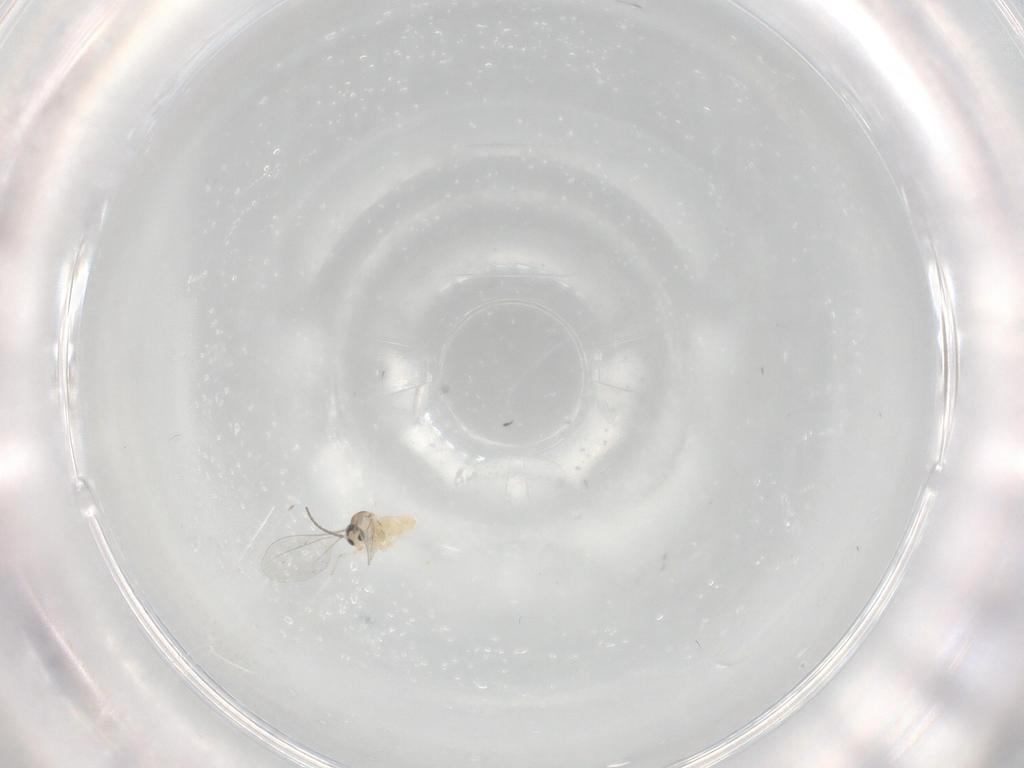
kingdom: Animalia
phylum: Arthropoda
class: Insecta
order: Diptera
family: Cecidomyiidae
